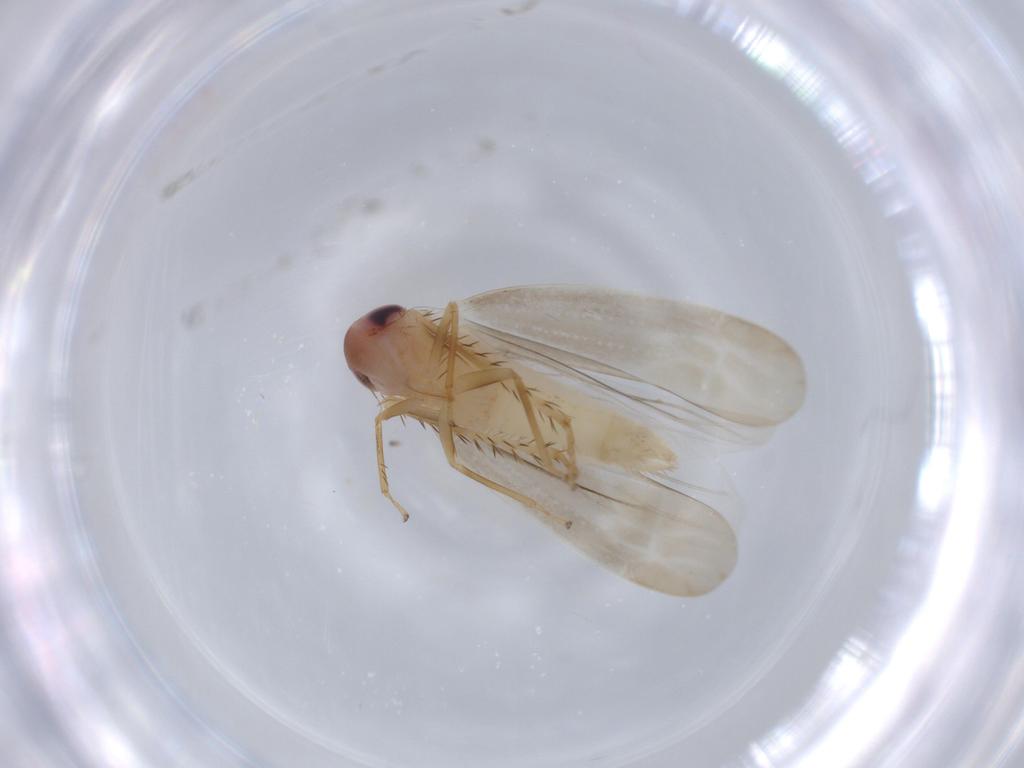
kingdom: Animalia
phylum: Arthropoda
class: Insecta
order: Hemiptera
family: Cicadellidae
